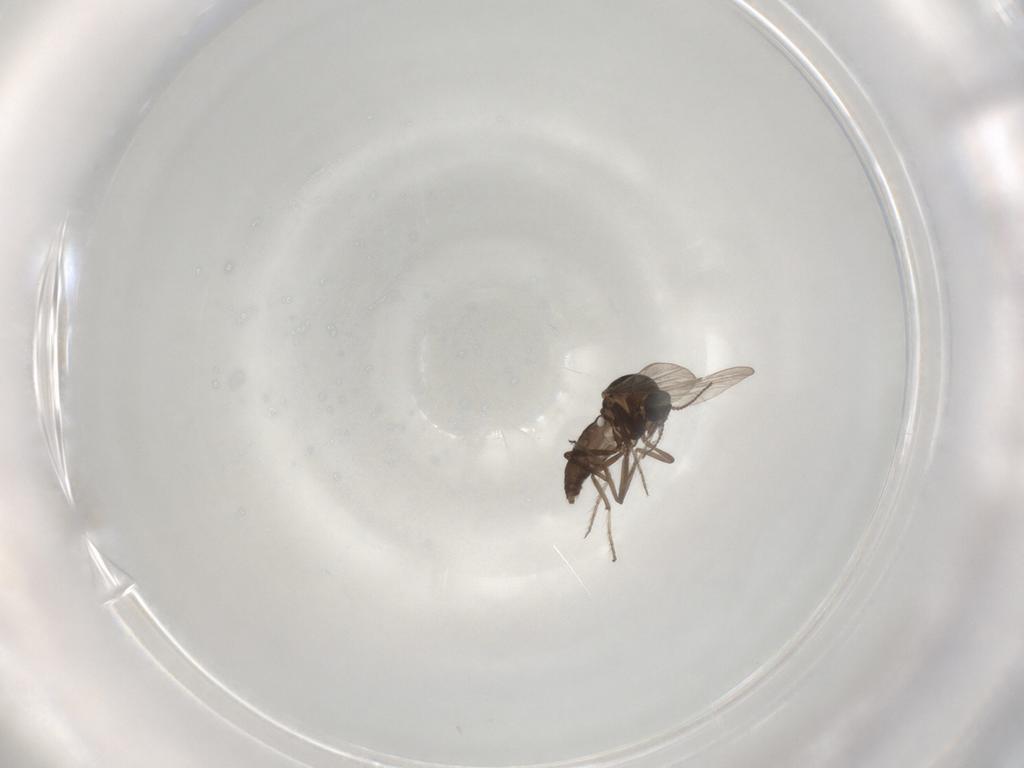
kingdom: Animalia
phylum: Arthropoda
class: Insecta
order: Diptera
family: Ceratopogonidae
